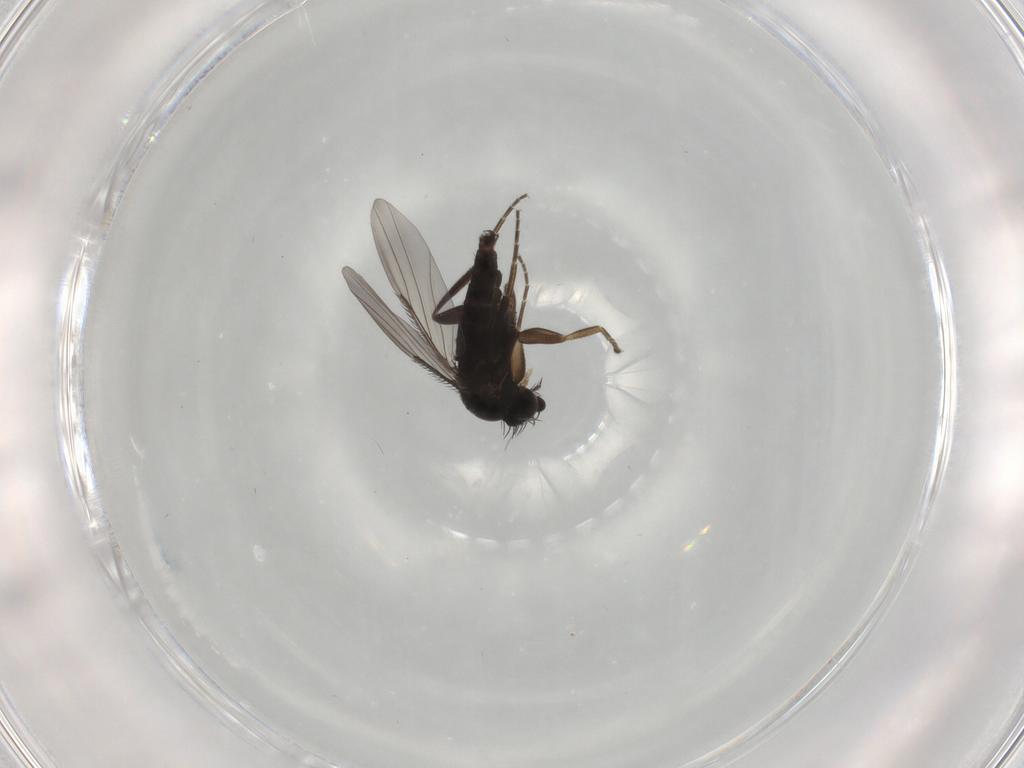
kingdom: Animalia
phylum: Arthropoda
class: Insecta
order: Diptera
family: Phoridae
